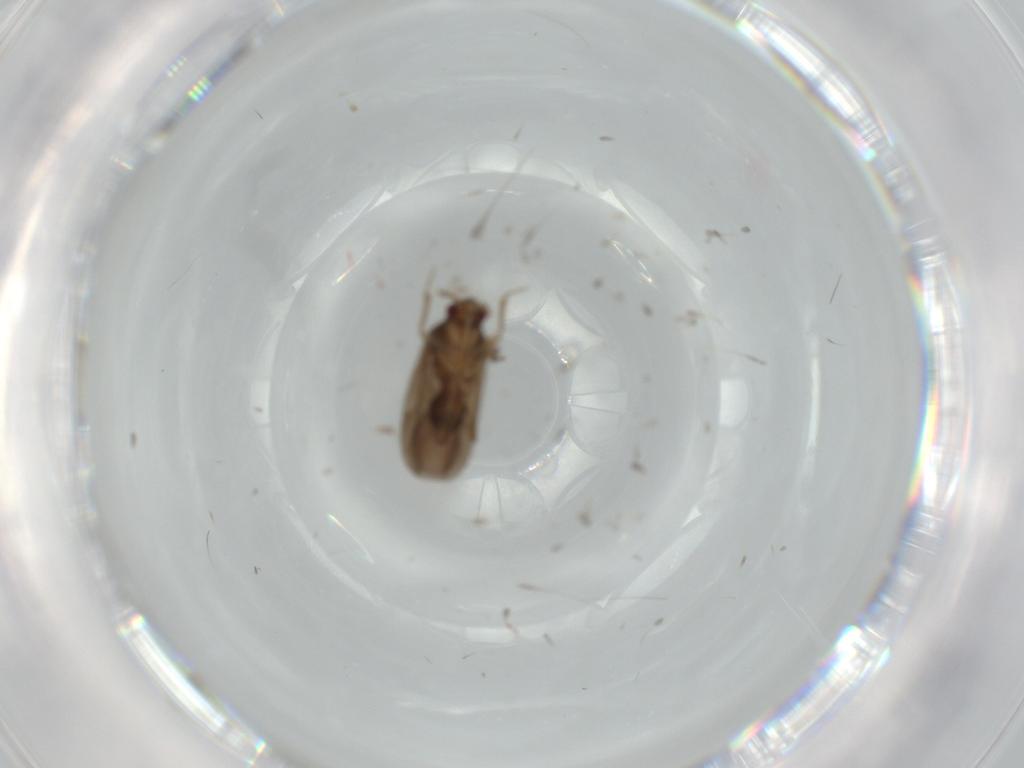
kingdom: Animalia
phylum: Arthropoda
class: Insecta
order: Hemiptera
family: Ceratocombidae
